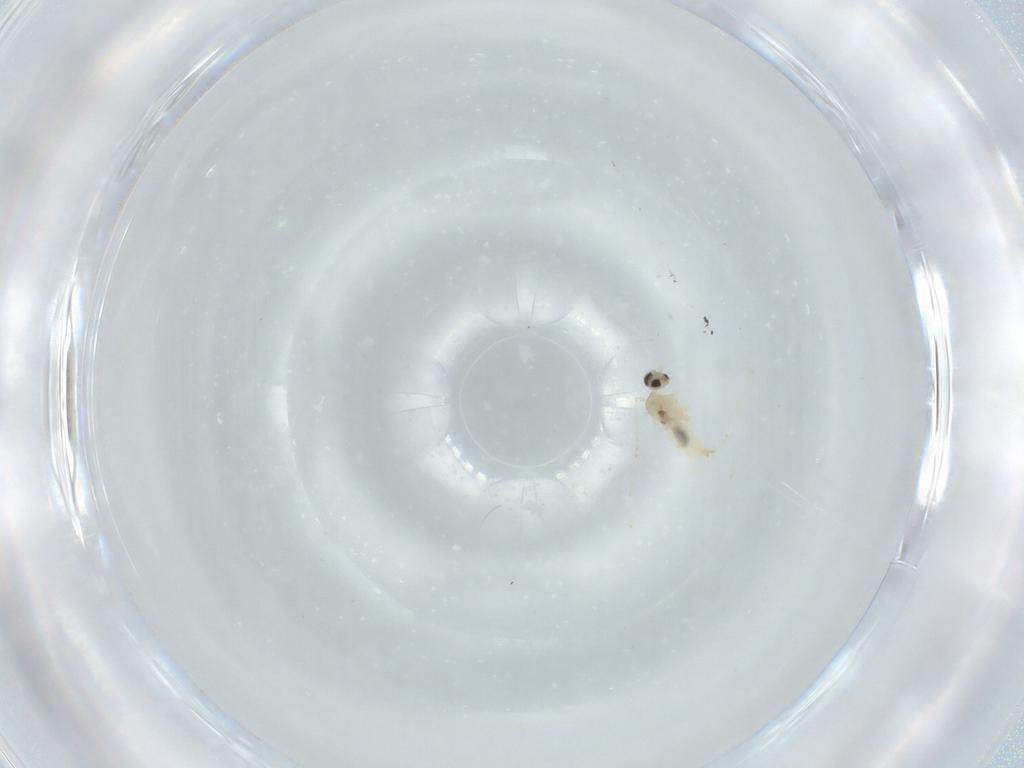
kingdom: Animalia
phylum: Arthropoda
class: Insecta
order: Diptera
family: Cecidomyiidae
